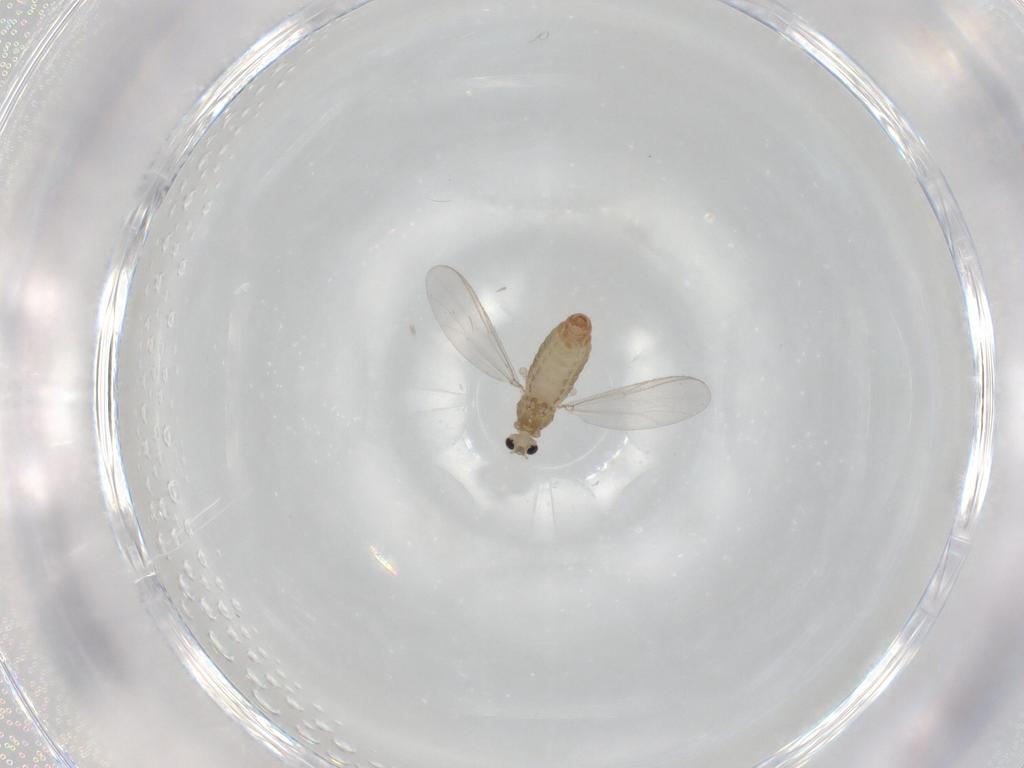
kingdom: Animalia
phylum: Arthropoda
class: Insecta
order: Diptera
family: Chironomidae
